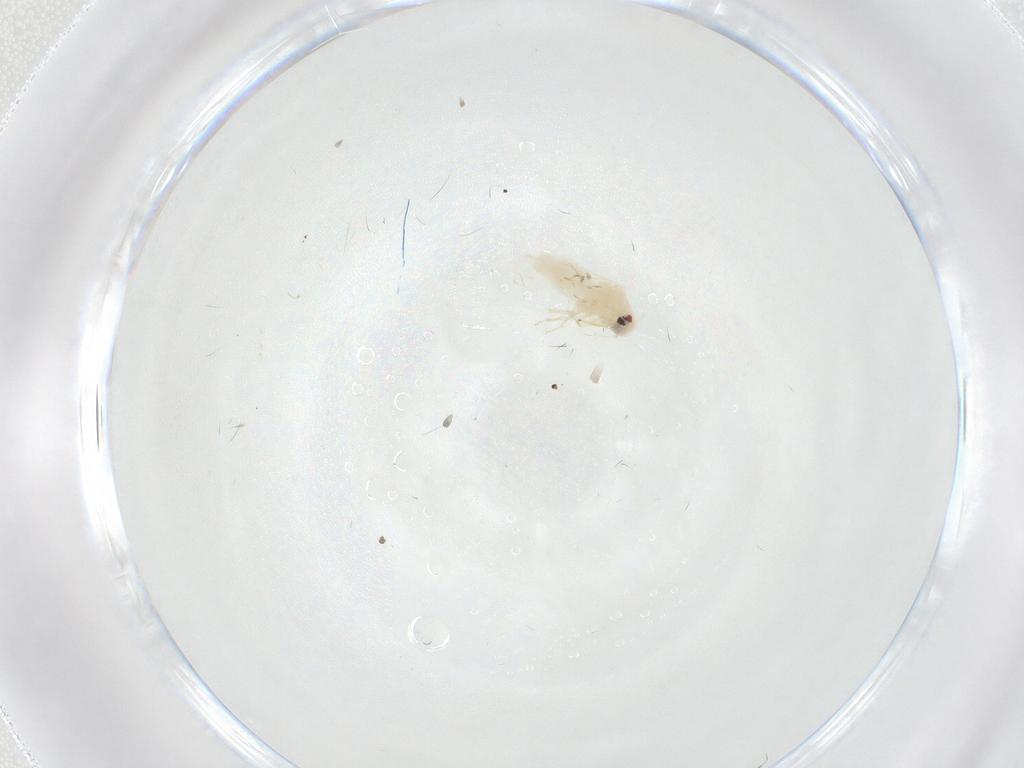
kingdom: Animalia
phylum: Arthropoda
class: Insecta
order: Hemiptera
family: Aleyrodidae
